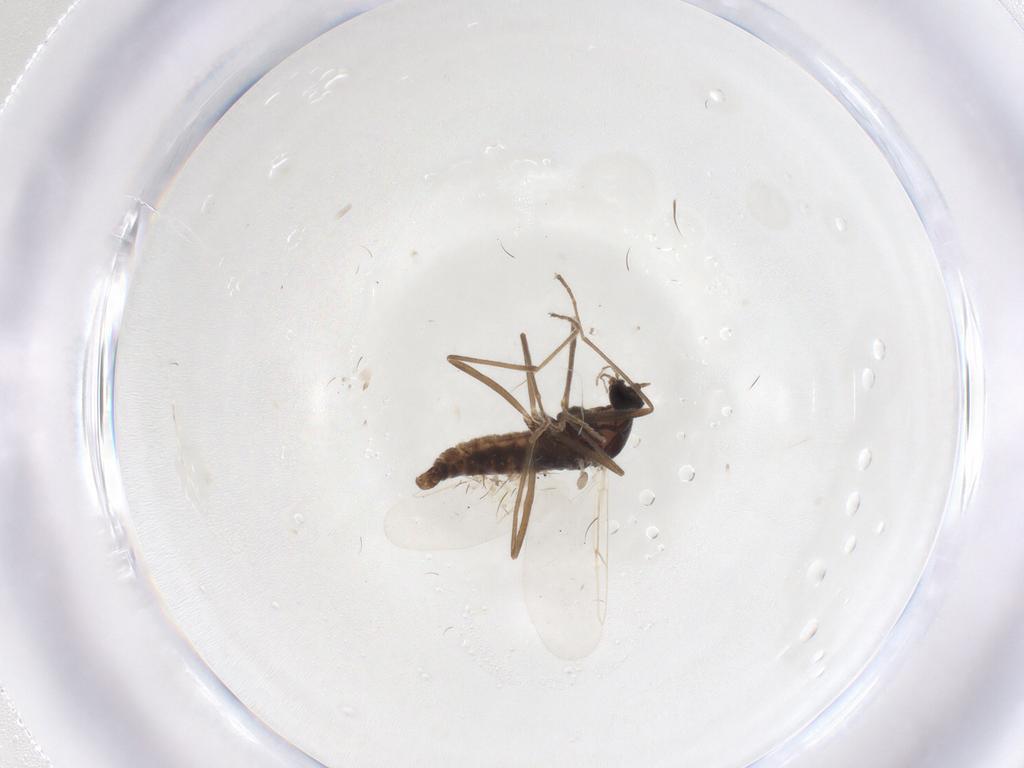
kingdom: Animalia
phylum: Arthropoda
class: Insecta
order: Diptera
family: Phoridae
